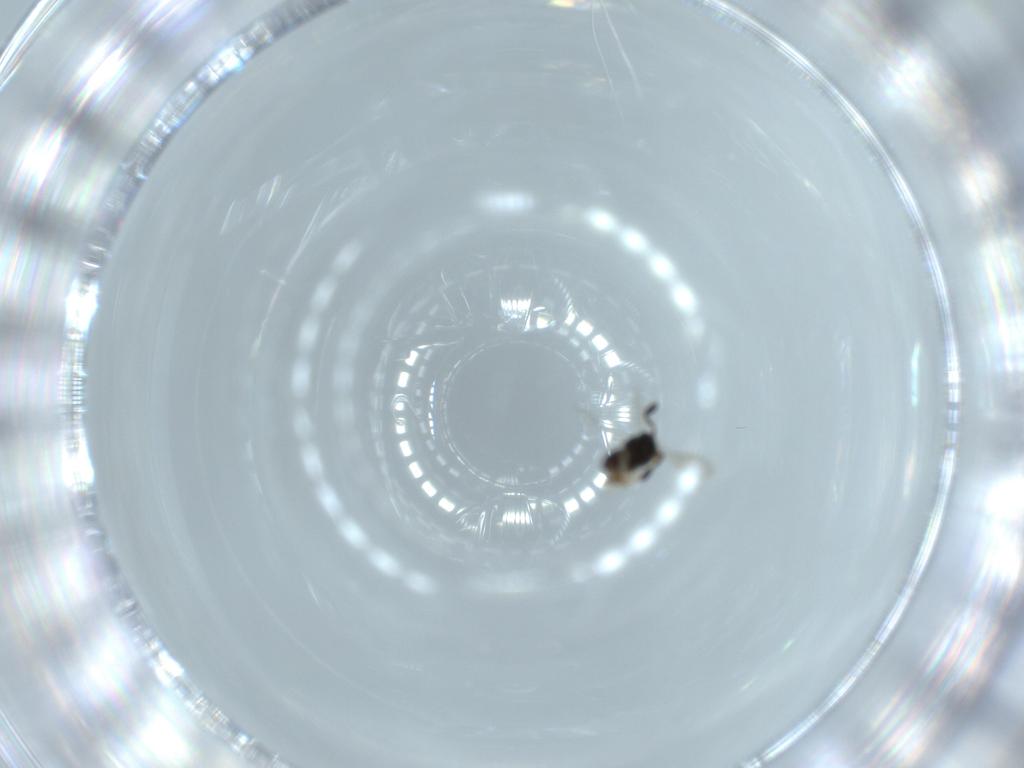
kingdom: Animalia
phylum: Arthropoda
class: Insecta
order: Hymenoptera
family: Scelionidae
